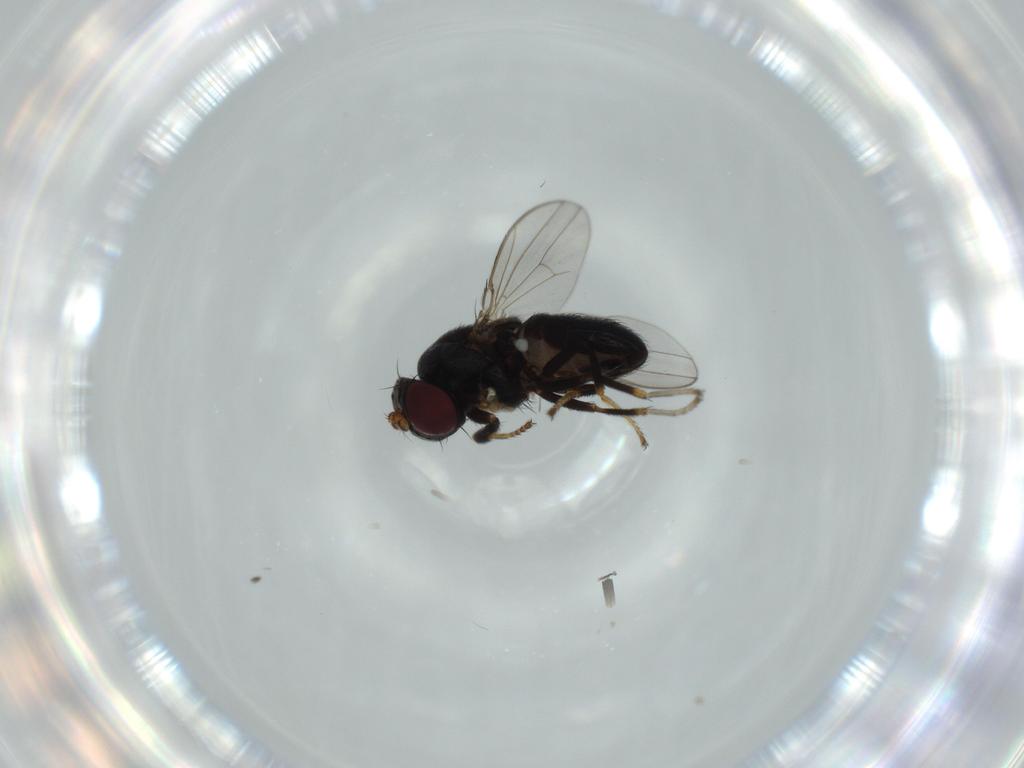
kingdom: Animalia
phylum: Arthropoda
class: Insecta
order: Diptera
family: Ephydridae
